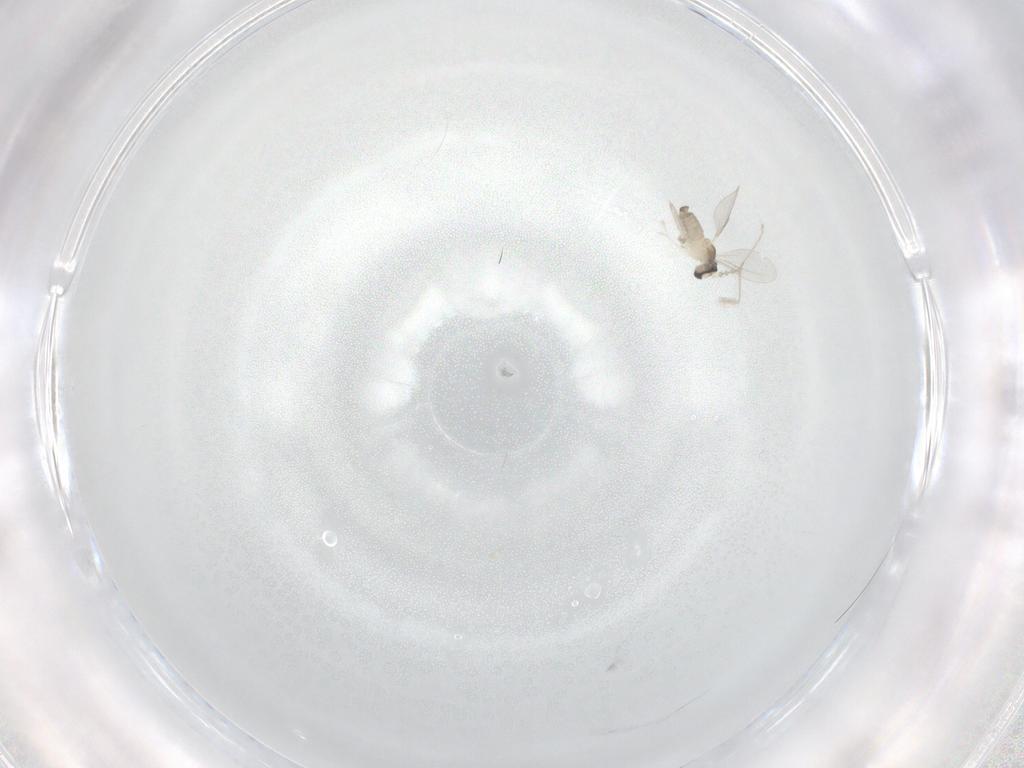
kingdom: Animalia
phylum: Arthropoda
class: Insecta
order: Diptera
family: Cecidomyiidae
